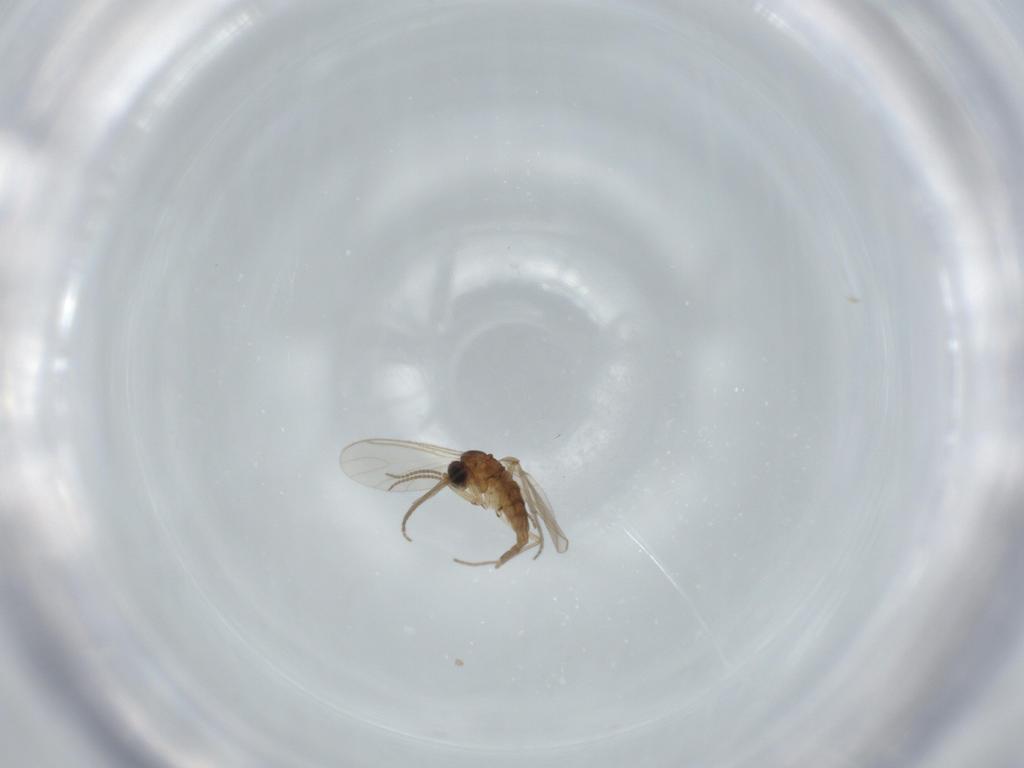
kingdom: Animalia
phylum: Arthropoda
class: Insecta
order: Diptera
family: Sciaridae
